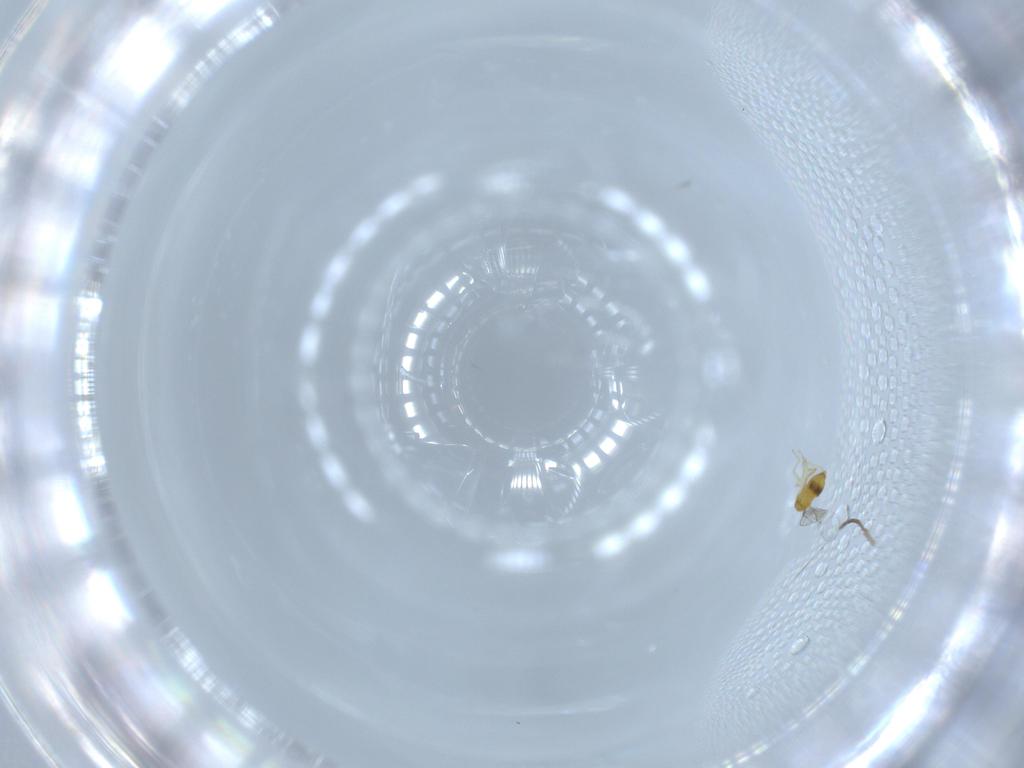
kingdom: Animalia
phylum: Arthropoda
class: Insecta
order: Hymenoptera
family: Trichogrammatidae
